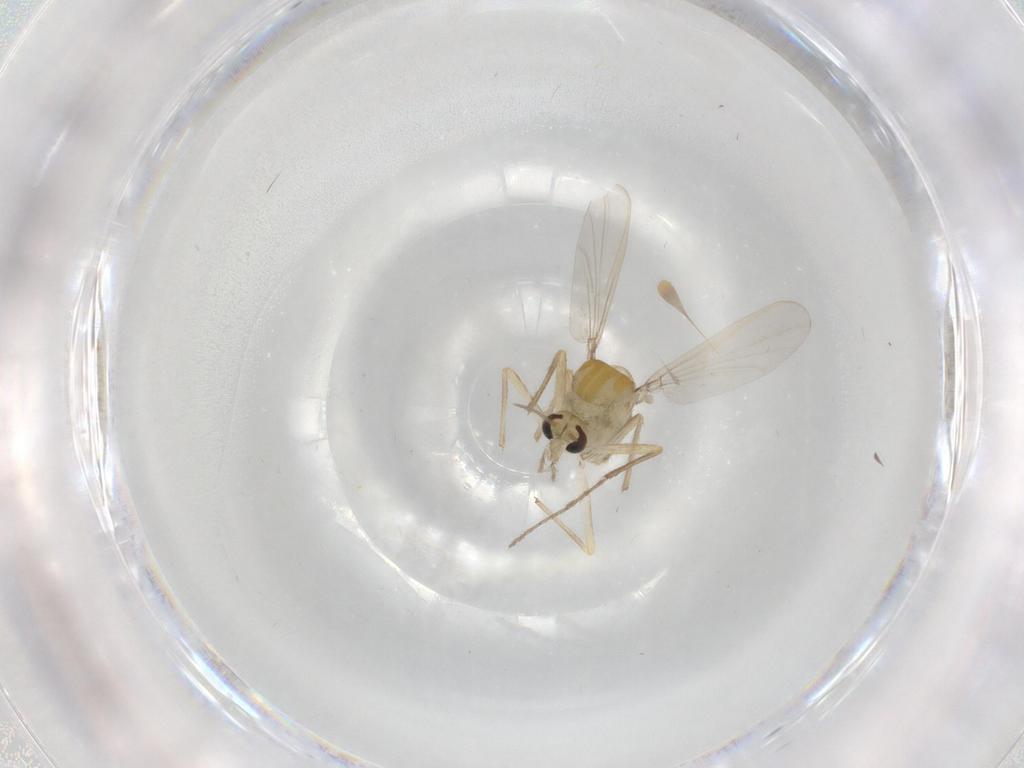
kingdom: Animalia
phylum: Arthropoda
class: Insecta
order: Diptera
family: Chironomidae
